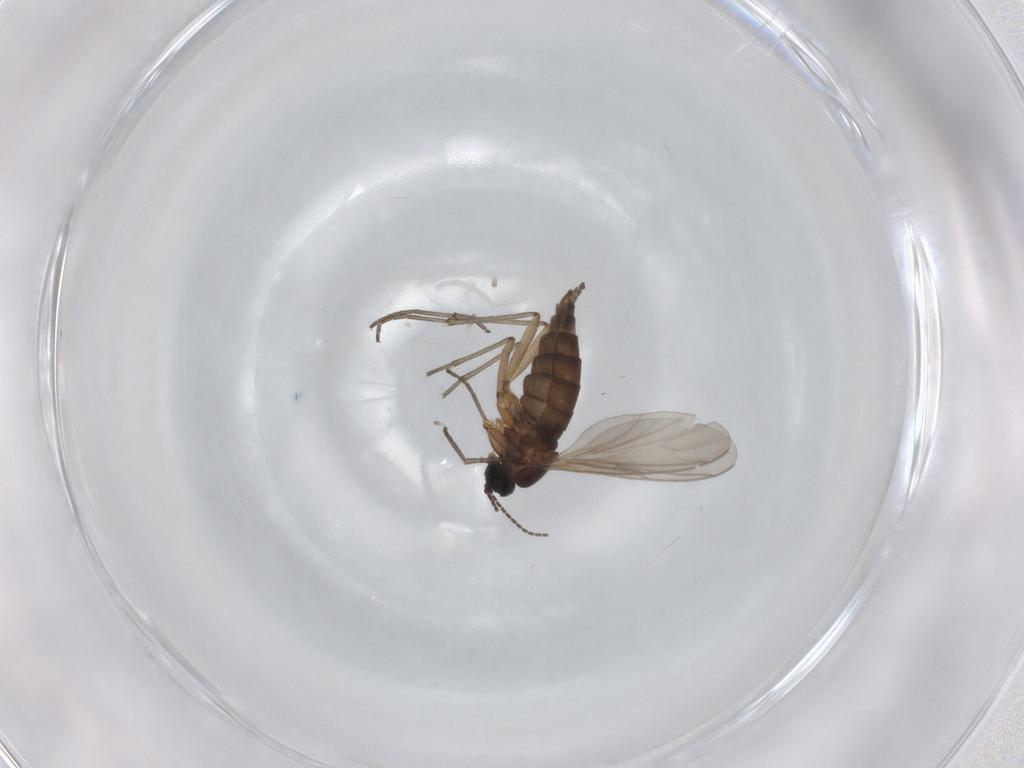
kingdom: Animalia
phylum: Arthropoda
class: Insecta
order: Diptera
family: Sciaridae
